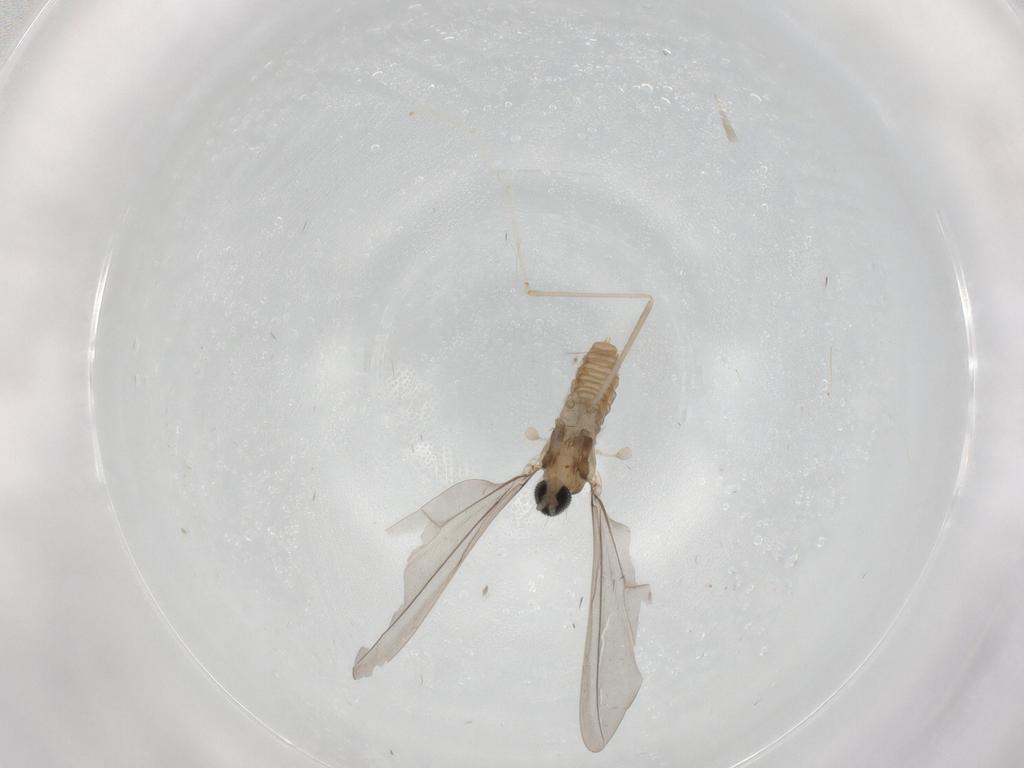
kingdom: Animalia
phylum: Arthropoda
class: Insecta
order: Diptera
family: Cecidomyiidae
